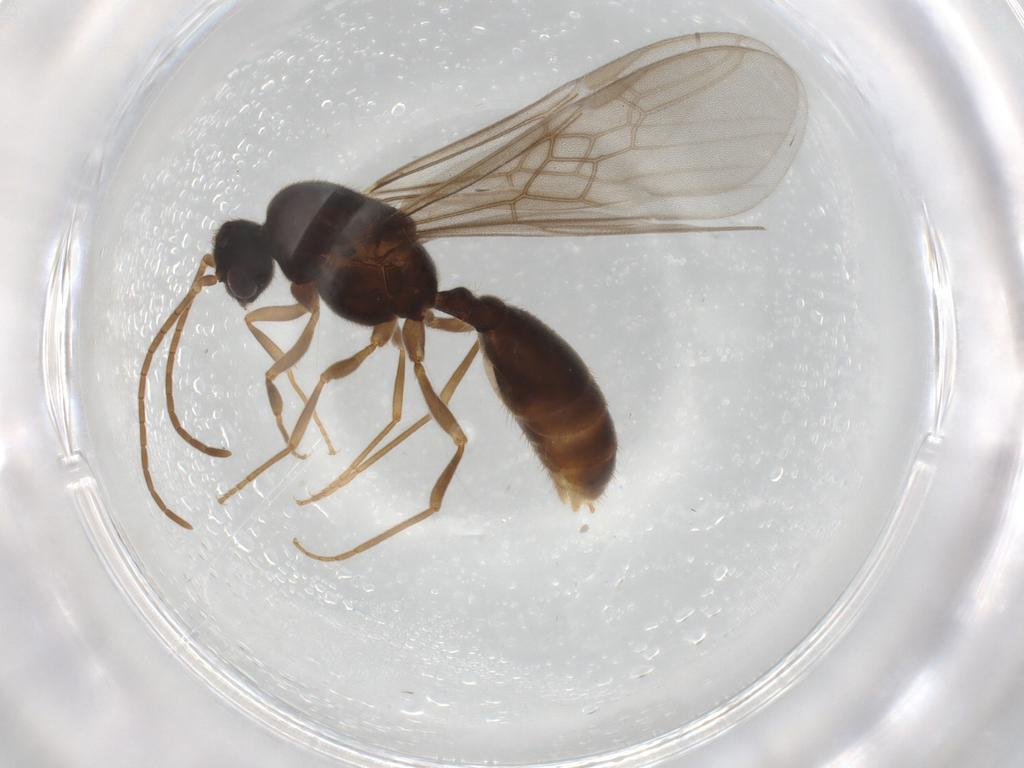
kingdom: Animalia
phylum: Arthropoda
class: Insecta
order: Hymenoptera
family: Formicidae
